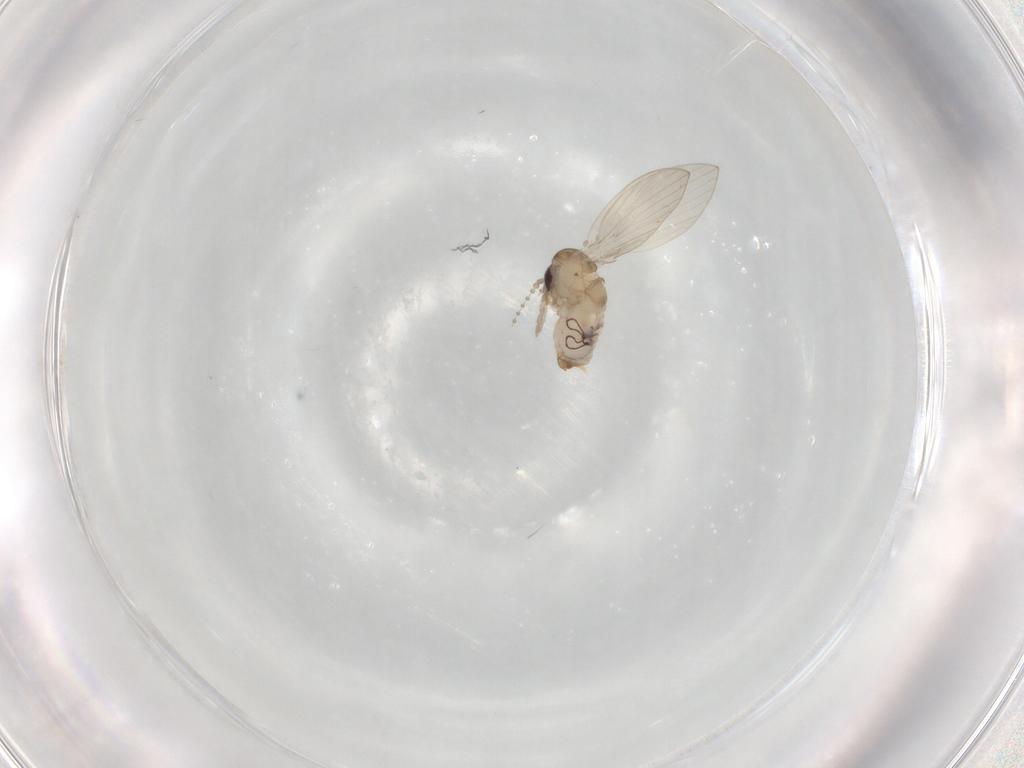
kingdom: Animalia
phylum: Arthropoda
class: Insecta
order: Diptera
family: Psychodidae
